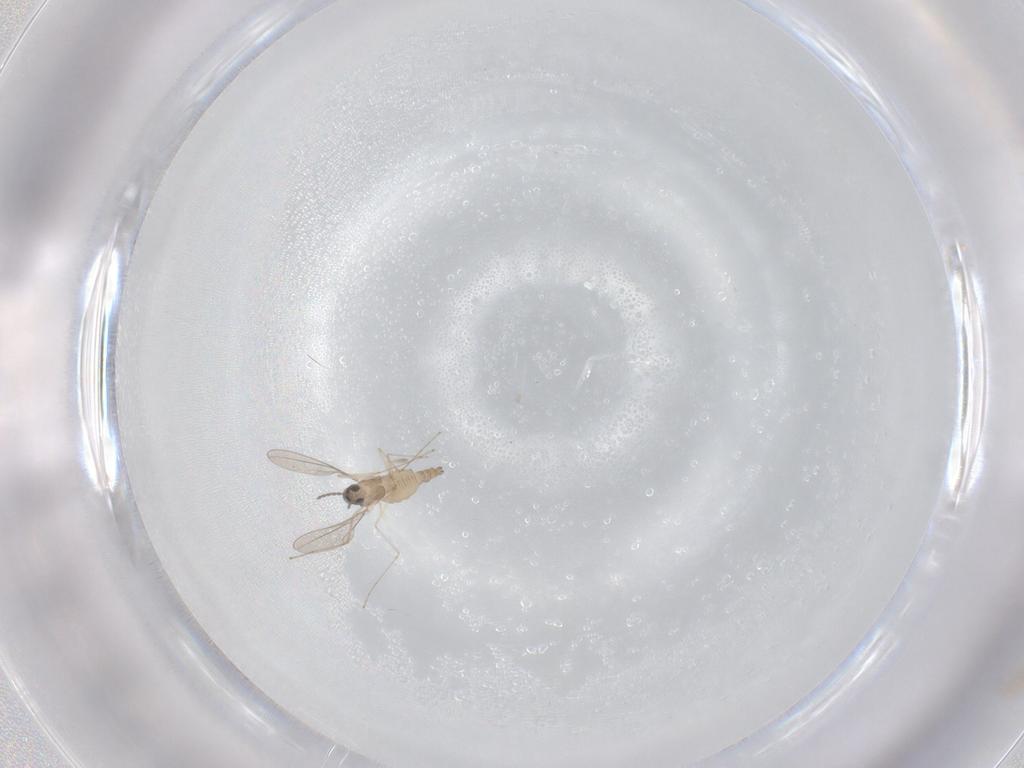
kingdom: Animalia
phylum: Arthropoda
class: Insecta
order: Diptera
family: Cecidomyiidae
